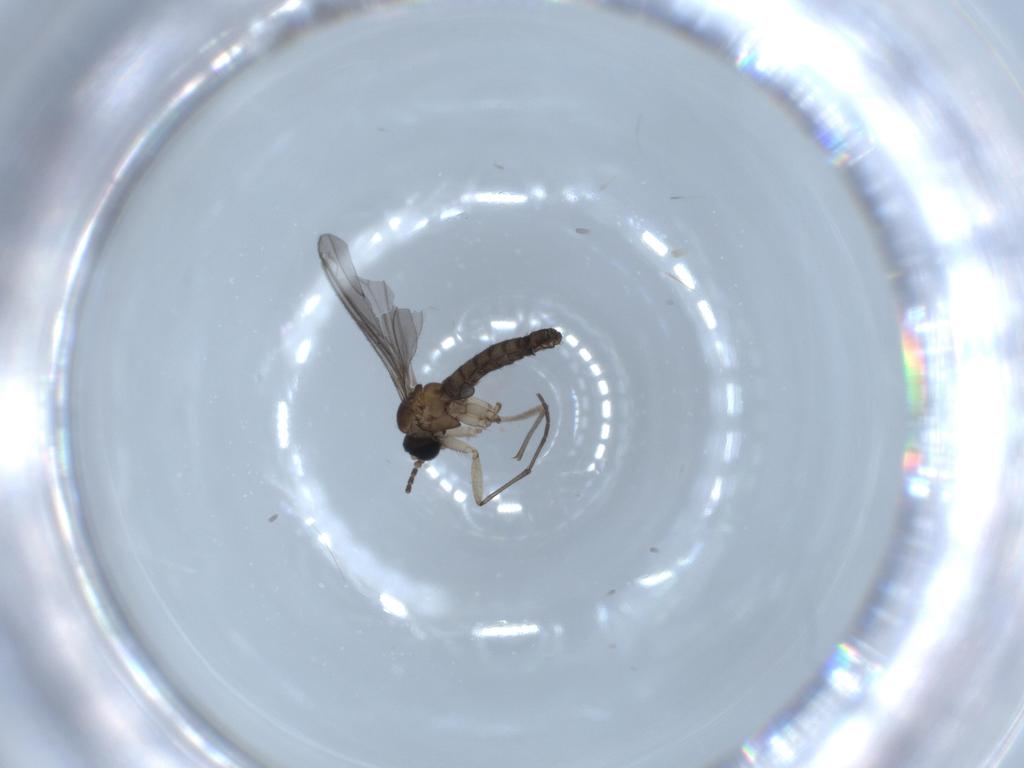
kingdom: Animalia
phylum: Arthropoda
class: Insecta
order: Diptera
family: Sciaridae
